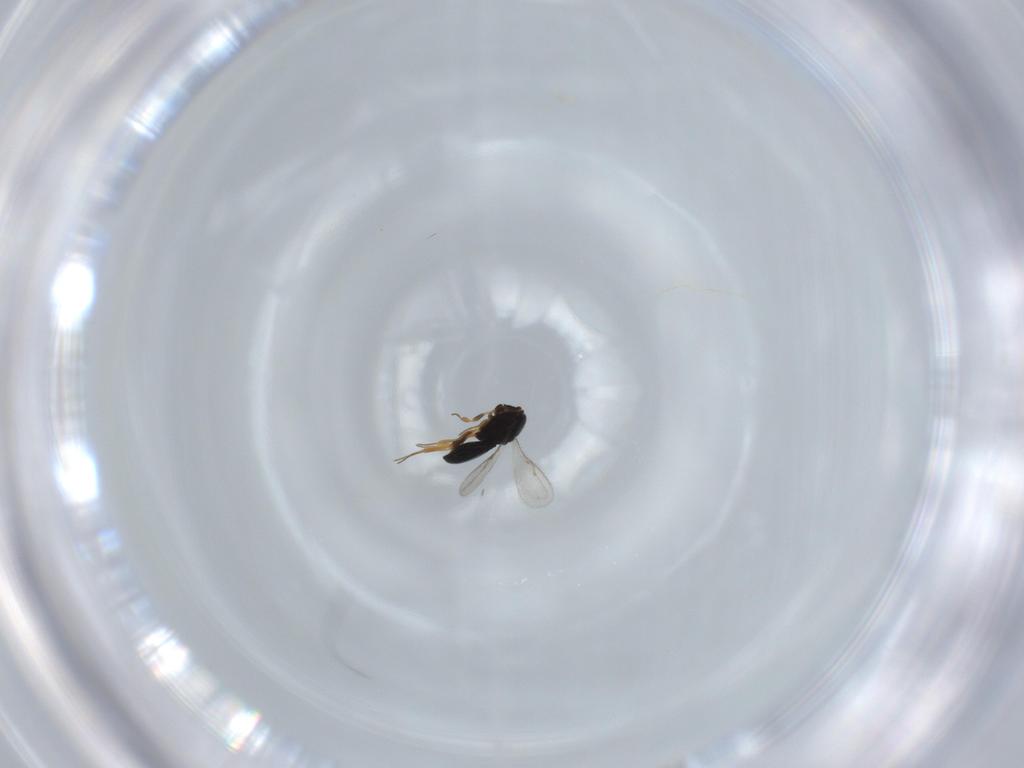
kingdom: Animalia
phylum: Arthropoda
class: Insecta
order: Hymenoptera
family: Scelionidae
